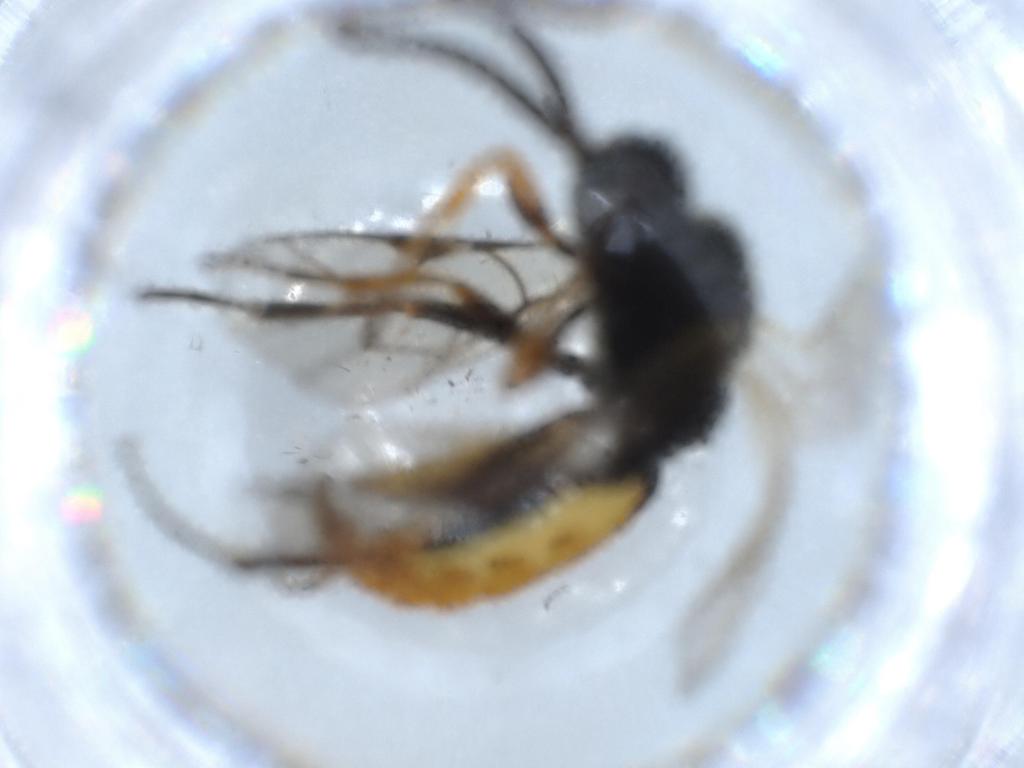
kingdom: Animalia
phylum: Arthropoda
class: Insecta
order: Hymenoptera
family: Ichneumonidae
